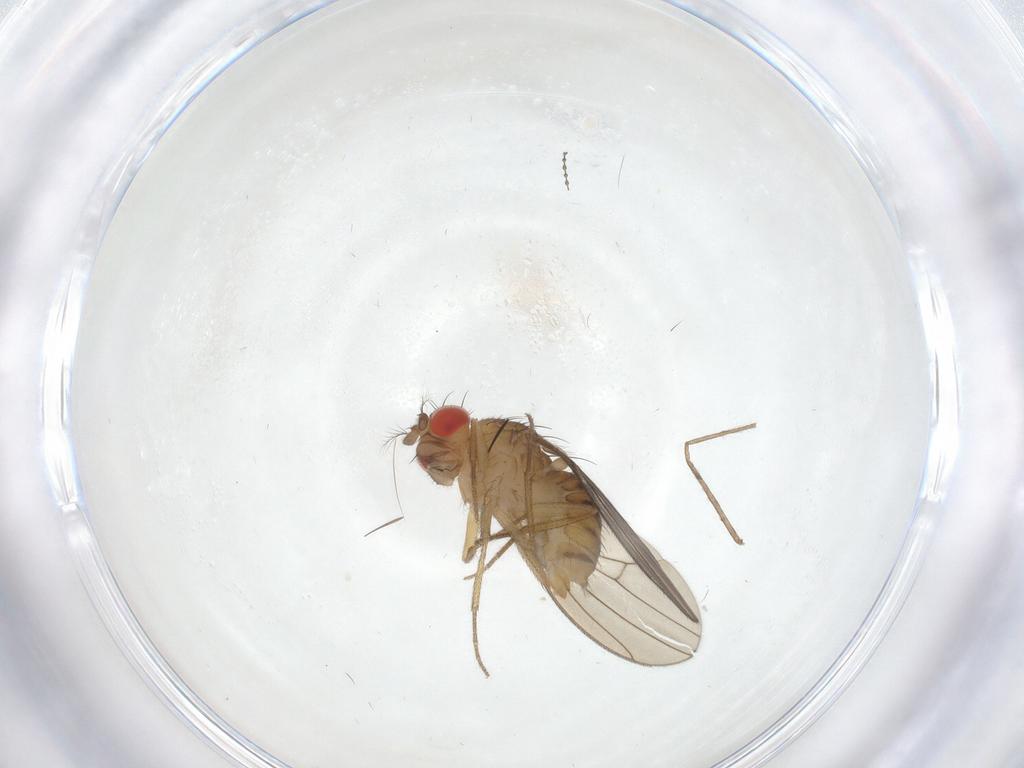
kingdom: Animalia
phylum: Arthropoda
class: Insecta
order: Diptera
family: Drosophilidae
